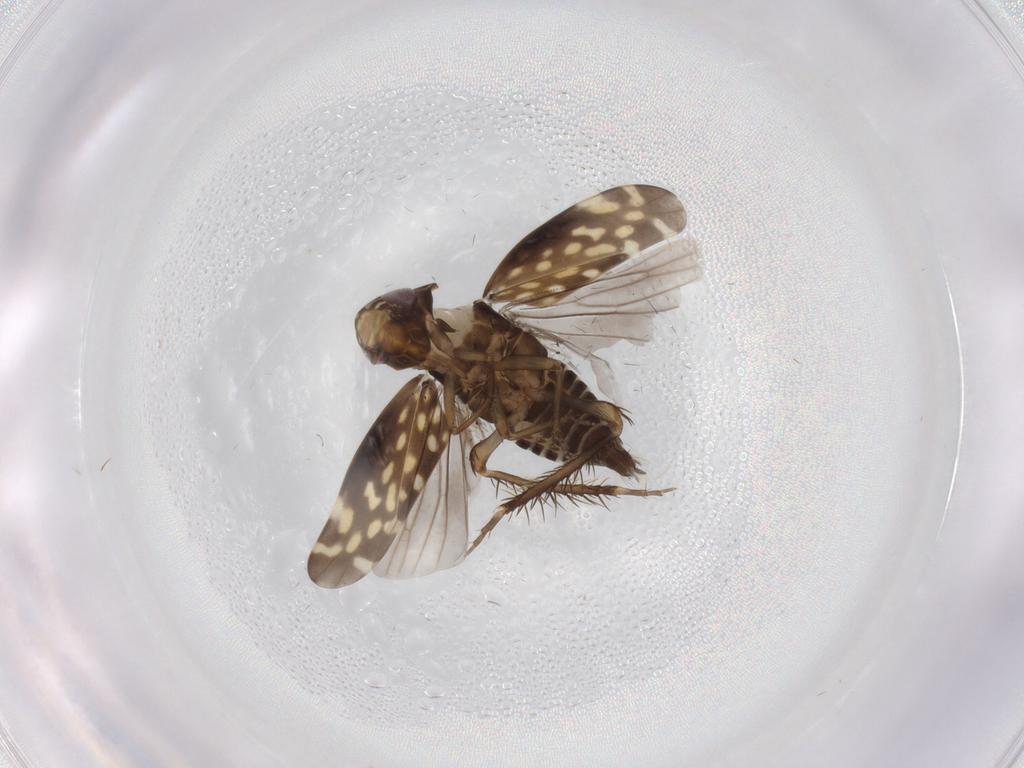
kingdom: Animalia
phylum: Arthropoda
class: Insecta
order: Hemiptera
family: Cicadellidae
